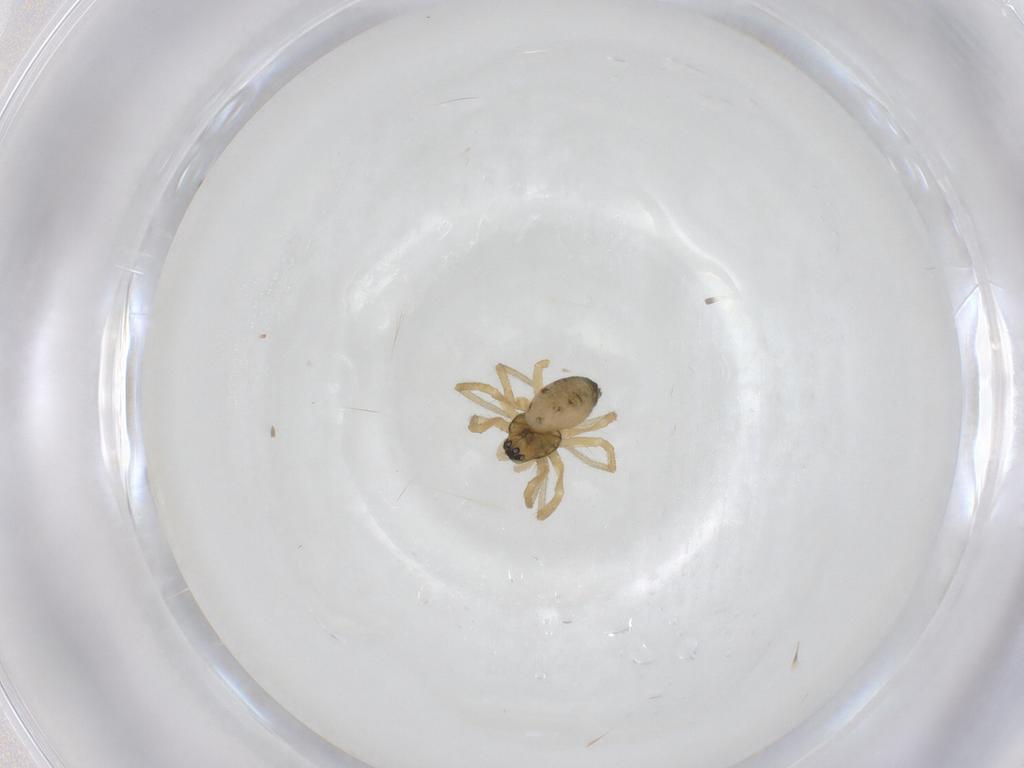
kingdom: Animalia
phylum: Arthropoda
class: Arachnida
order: Araneae
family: Linyphiidae
